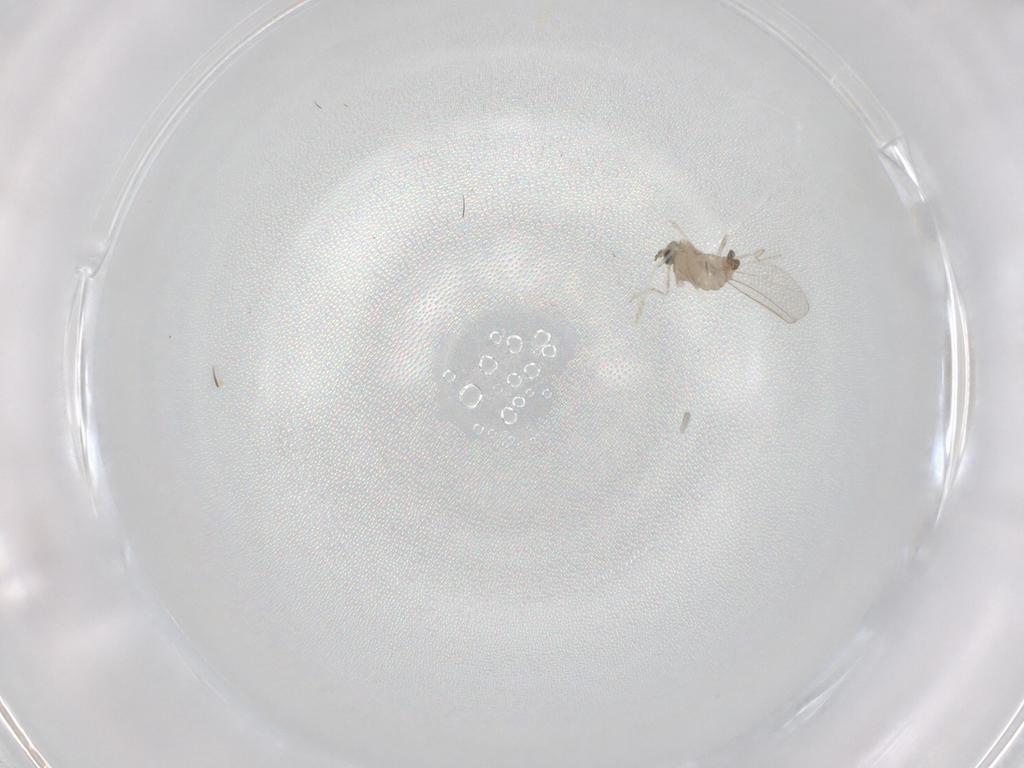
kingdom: Animalia
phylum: Arthropoda
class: Insecta
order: Diptera
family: Cecidomyiidae
